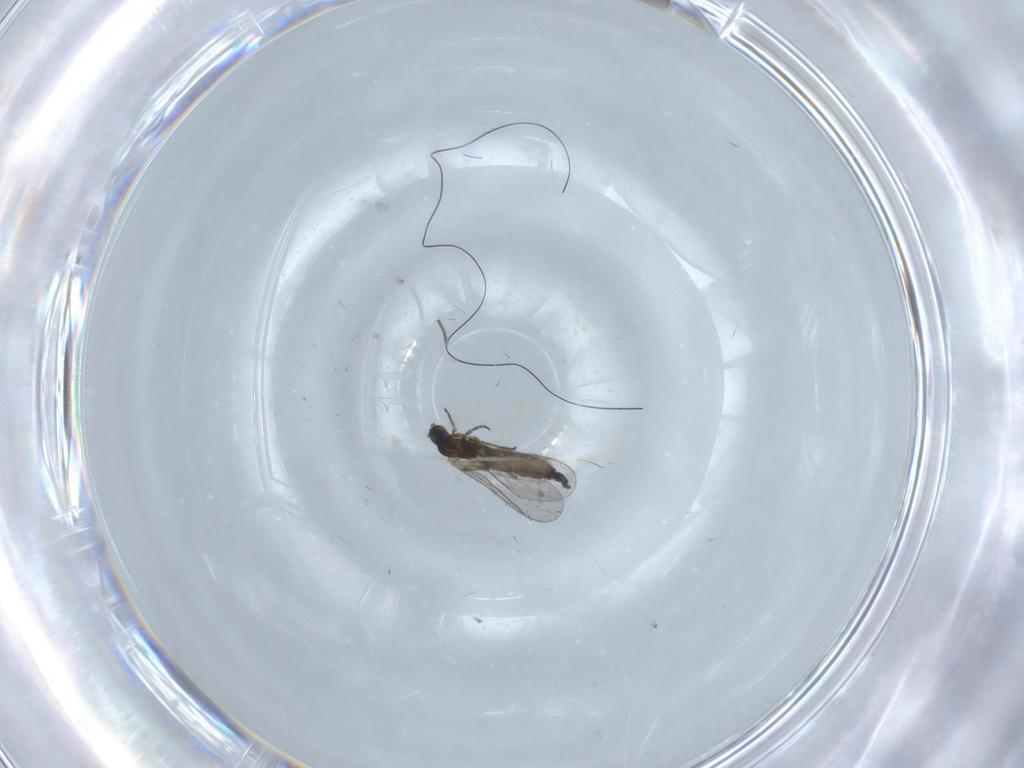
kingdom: Animalia
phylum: Arthropoda
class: Insecta
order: Diptera
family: Sciaridae
